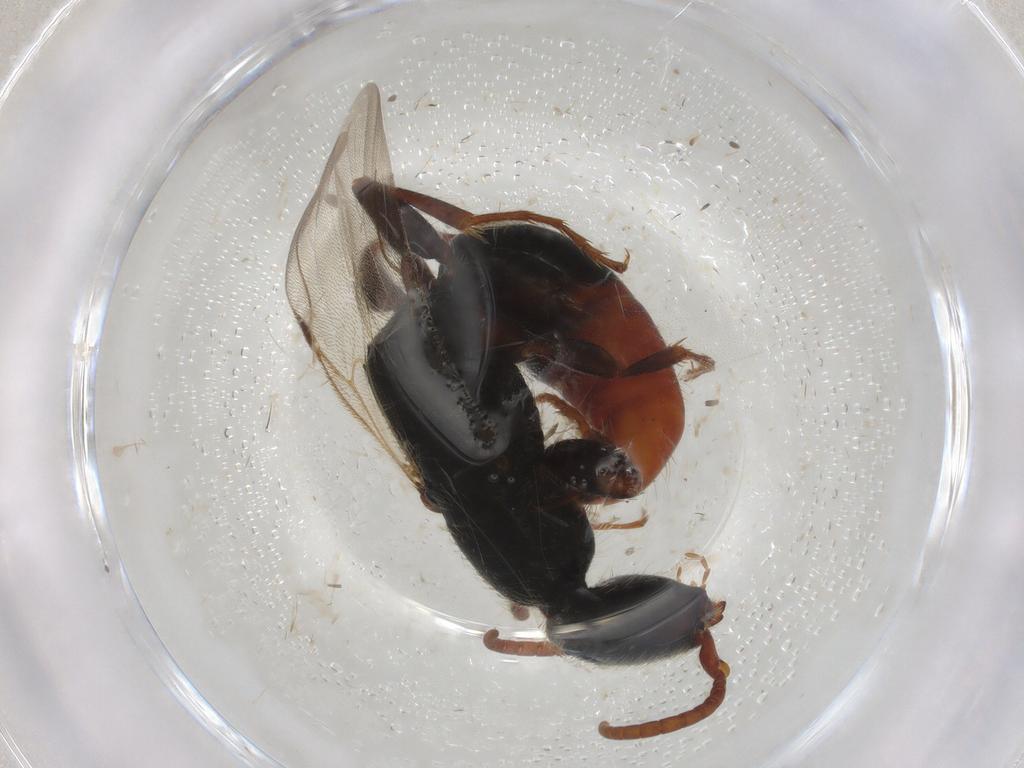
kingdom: Animalia
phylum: Arthropoda
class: Insecta
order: Hymenoptera
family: Bethylidae
